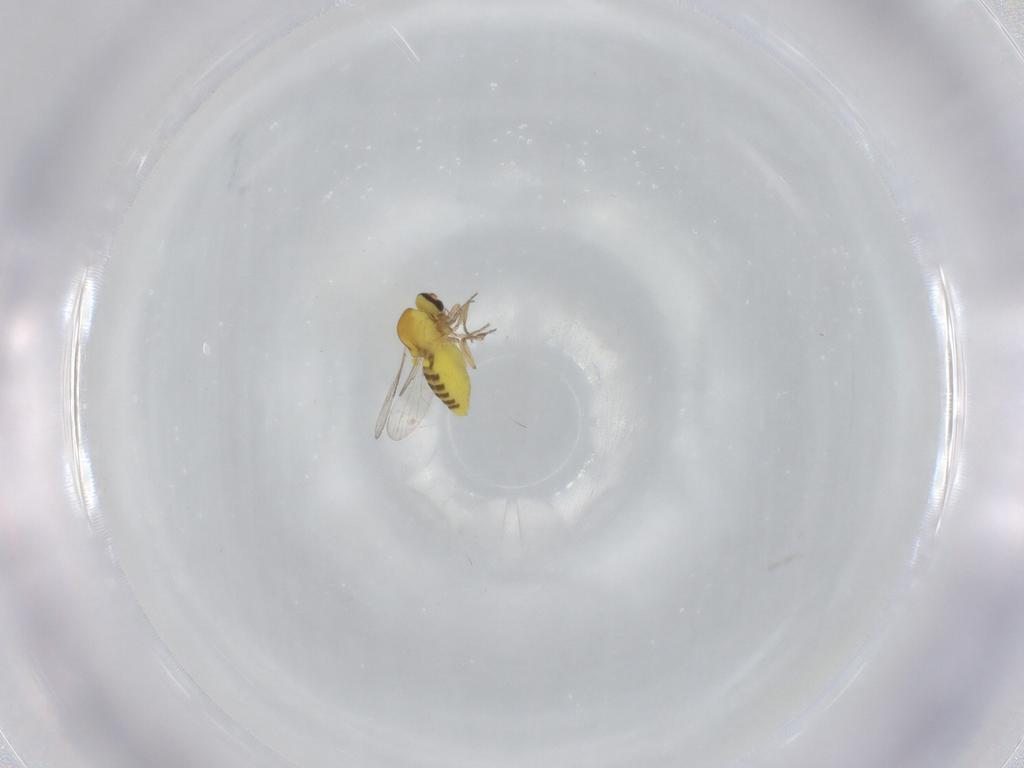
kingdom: Animalia
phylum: Arthropoda
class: Insecta
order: Diptera
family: Ceratopogonidae
